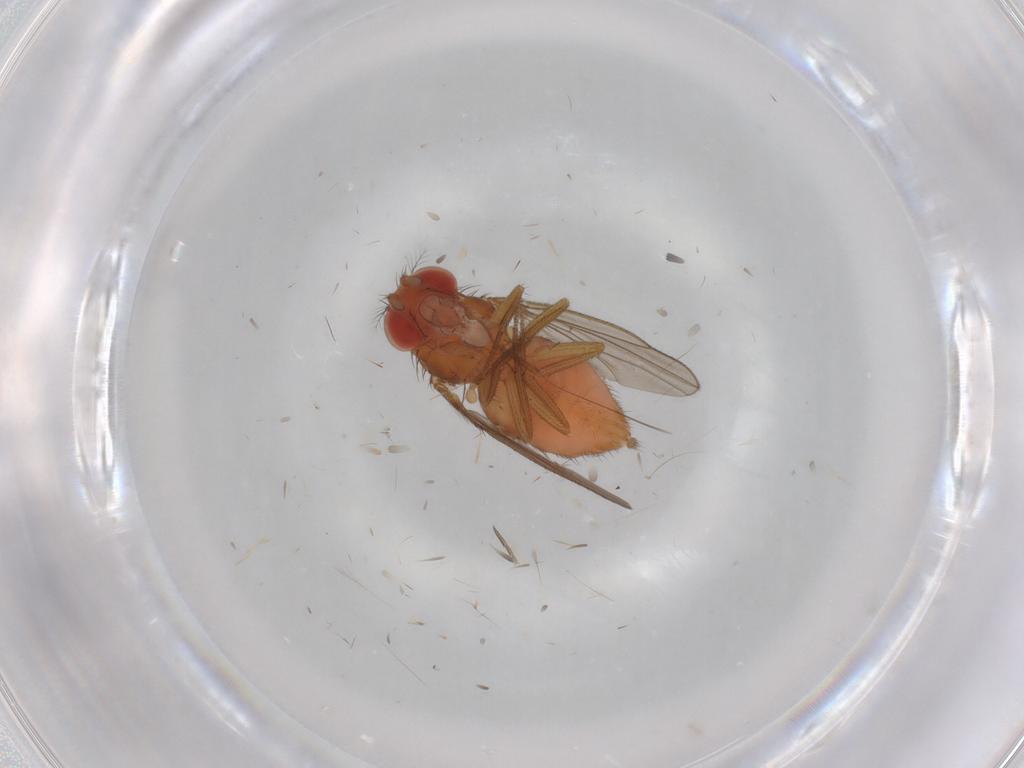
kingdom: Animalia
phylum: Arthropoda
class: Insecta
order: Diptera
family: Drosophilidae
